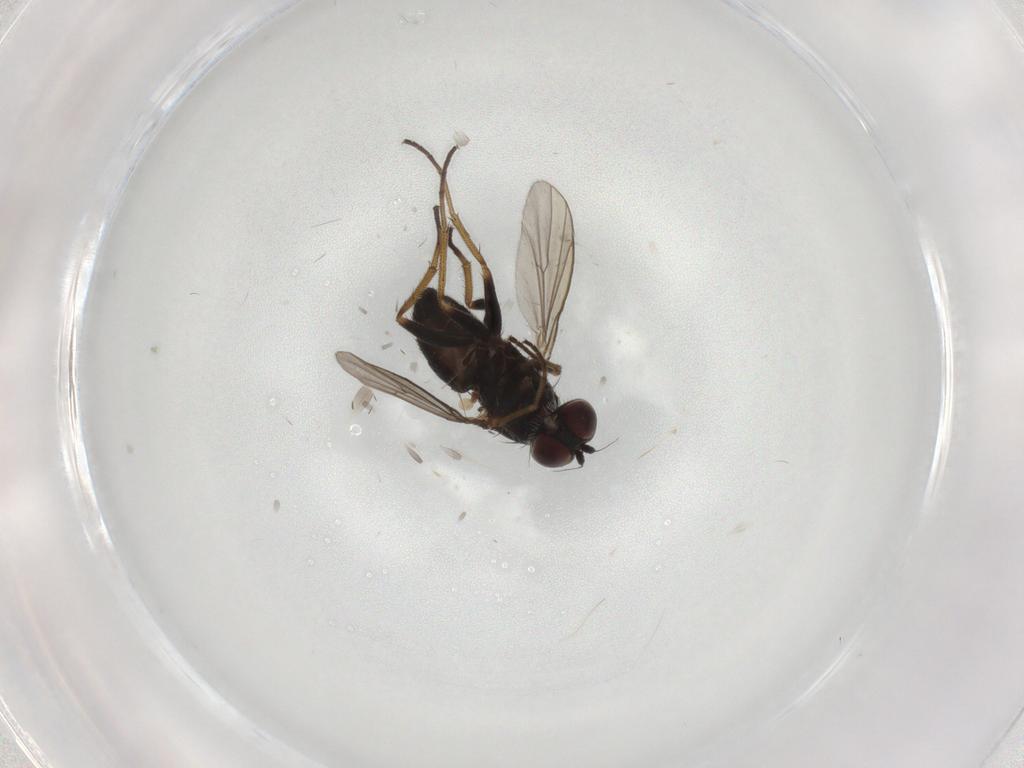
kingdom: Animalia
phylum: Arthropoda
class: Insecta
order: Diptera
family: Dolichopodidae
